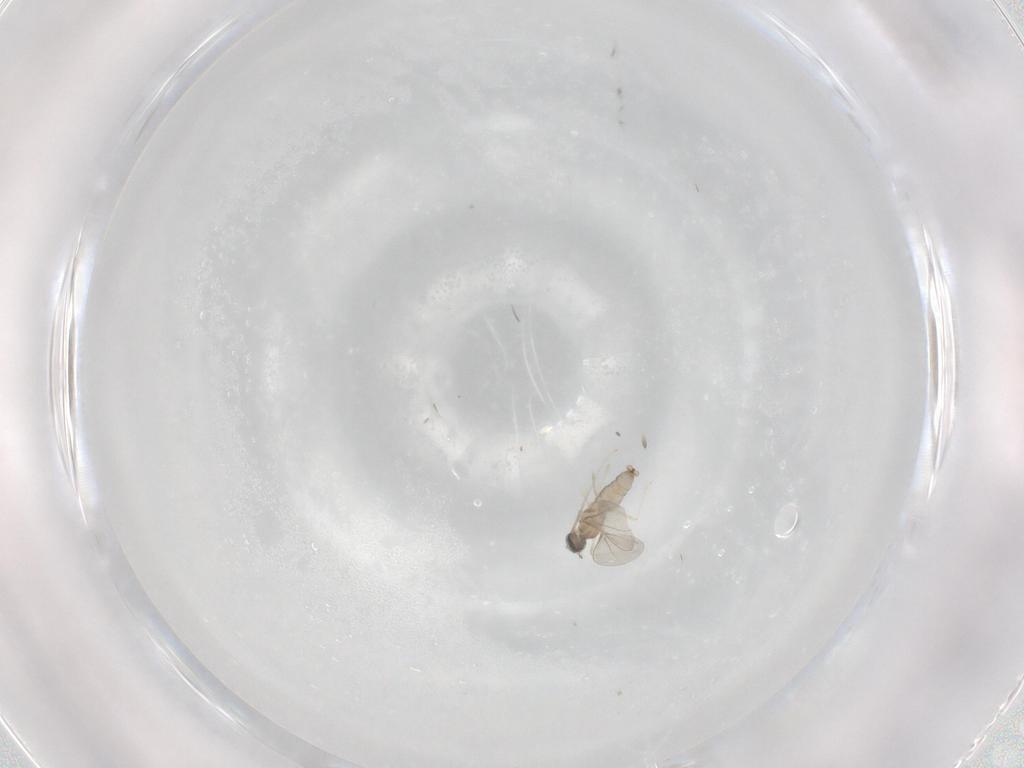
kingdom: Animalia
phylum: Arthropoda
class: Insecta
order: Diptera
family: Cecidomyiidae
